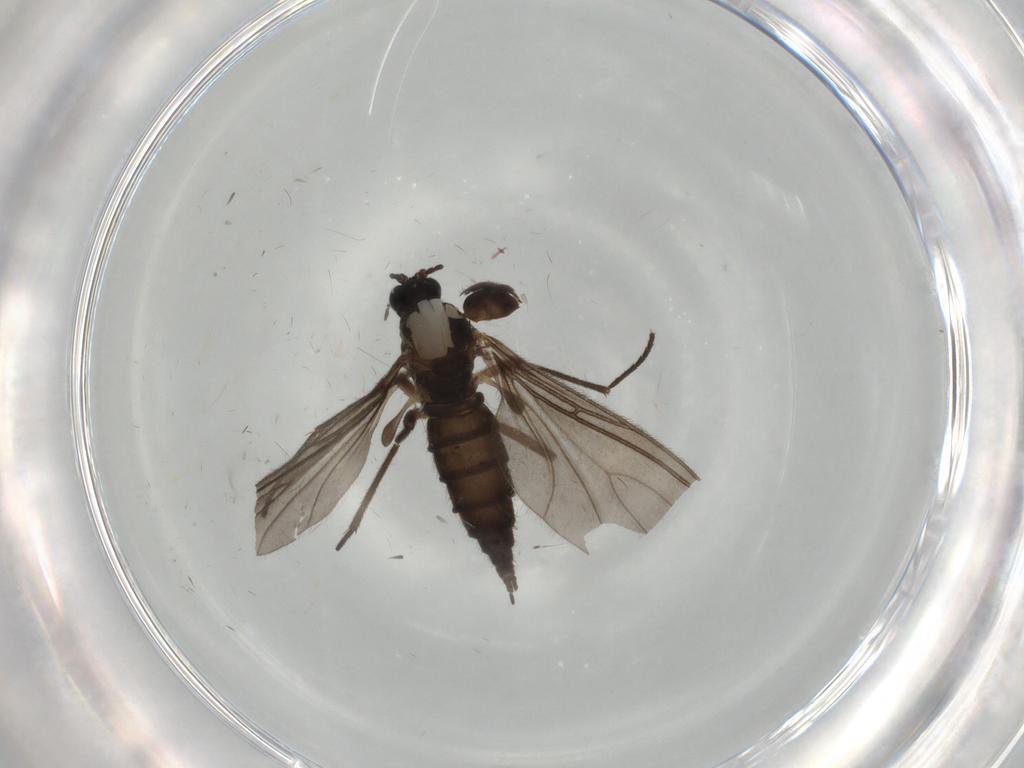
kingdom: Animalia
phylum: Arthropoda
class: Insecta
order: Diptera
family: Sciaridae
